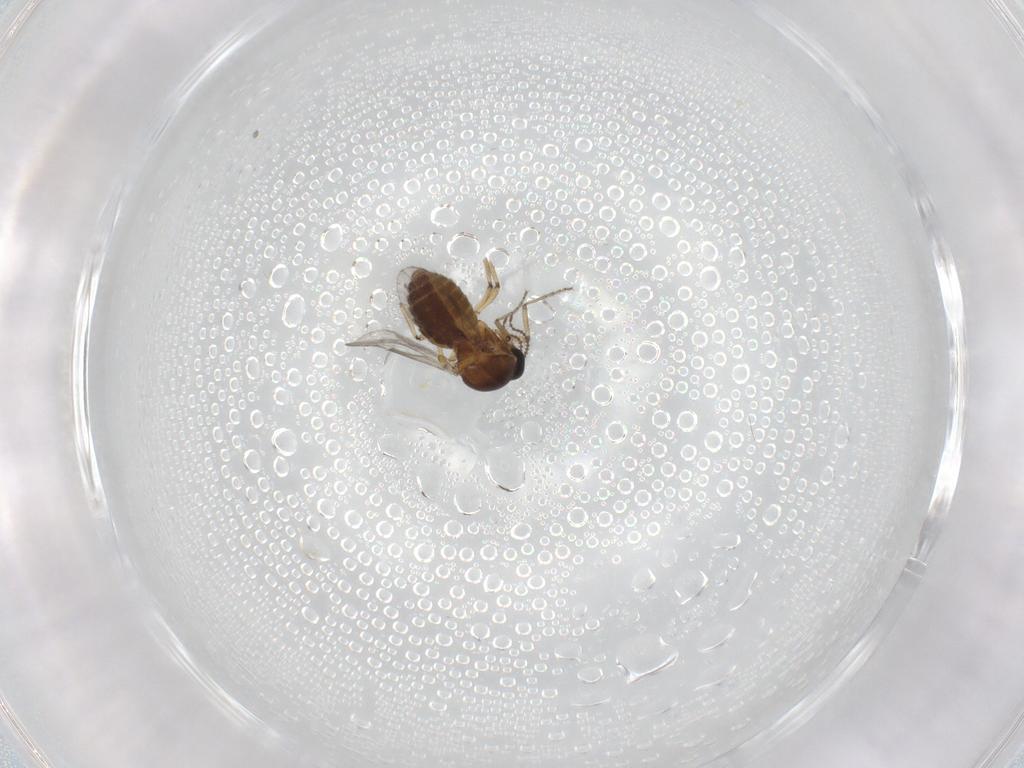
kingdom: Animalia
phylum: Arthropoda
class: Insecta
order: Diptera
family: Ceratopogonidae
